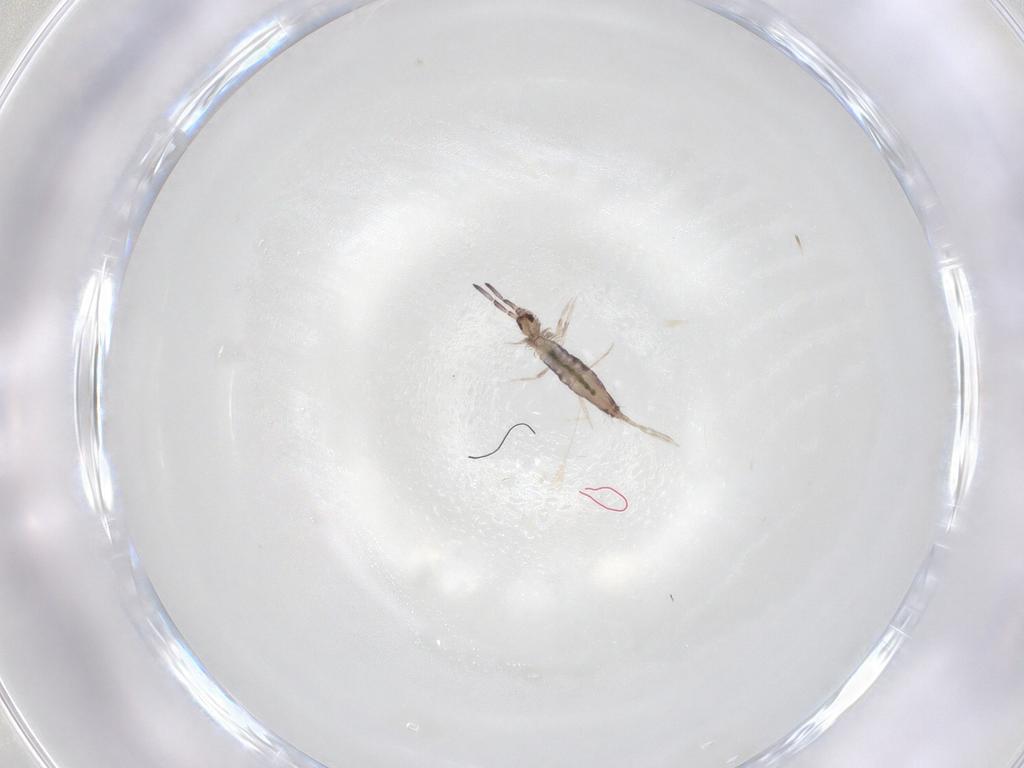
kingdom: Animalia
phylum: Arthropoda
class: Collembola
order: Entomobryomorpha
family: Entomobryidae
